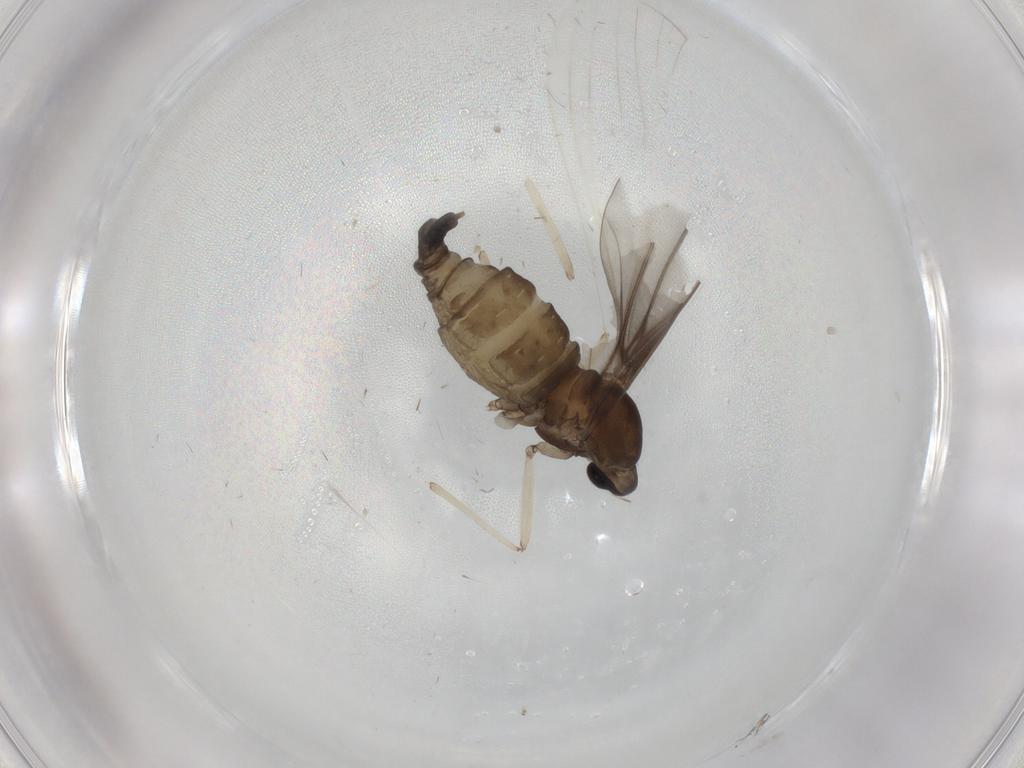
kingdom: Animalia
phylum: Arthropoda
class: Insecta
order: Diptera
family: Cecidomyiidae
